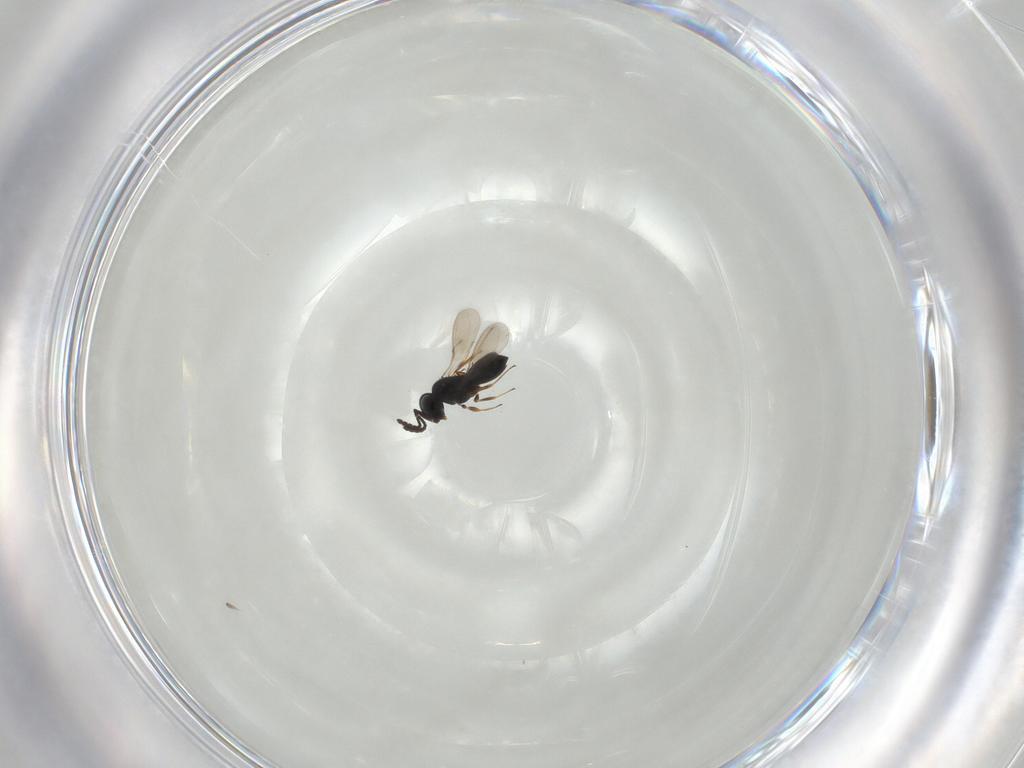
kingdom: Animalia
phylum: Arthropoda
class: Insecta
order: Hymenoptera
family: Scelionidae
